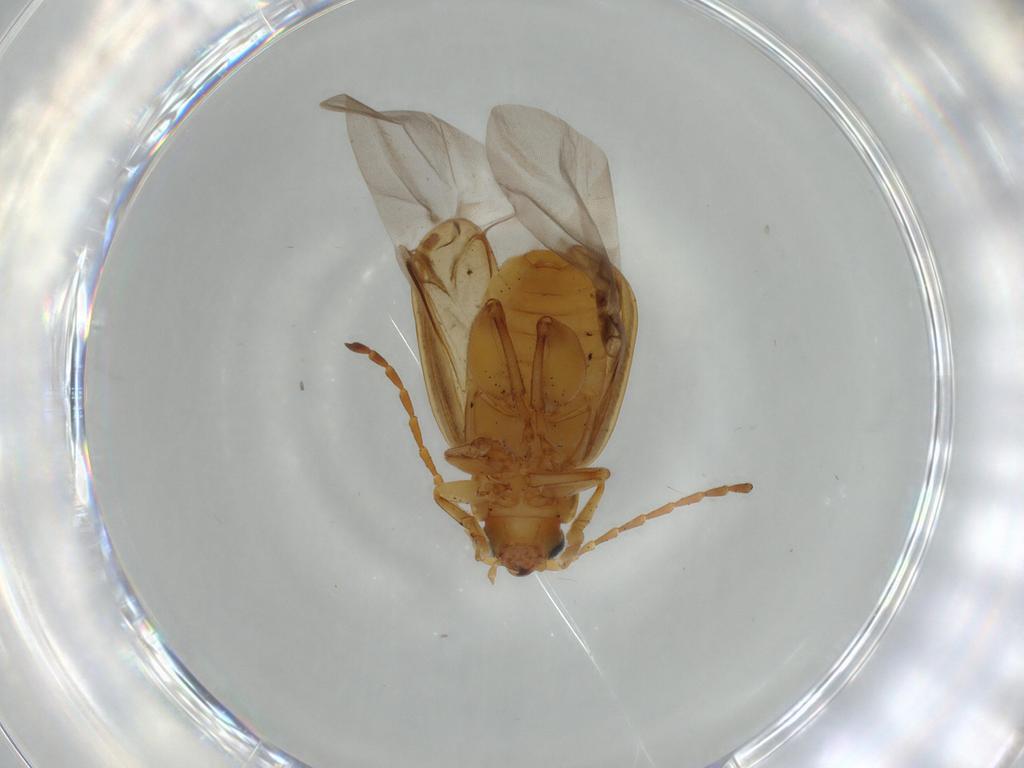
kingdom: Animalia
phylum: Arthropoda
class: Insecta
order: Coleoptera
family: Chrysomelidae
